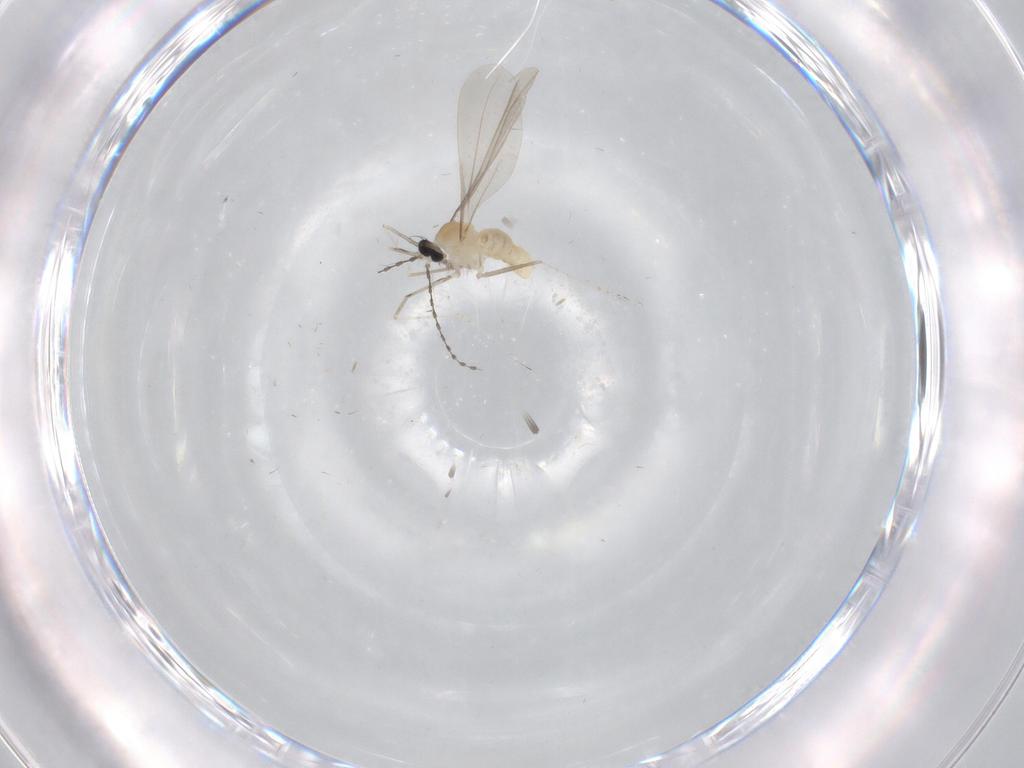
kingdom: Animalia
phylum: Arthropoda
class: Insecta
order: Diptera
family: Cecidomyiidae
